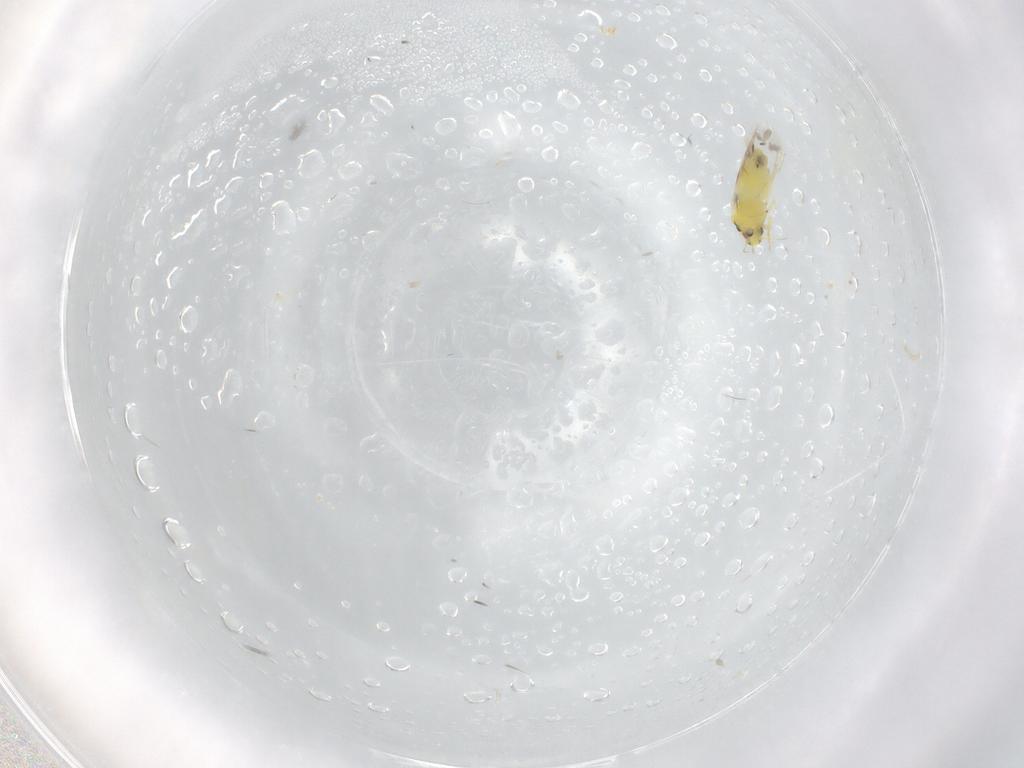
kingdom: Animalia
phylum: Arthropoda
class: Insecta
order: Hemiptera
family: Aleyrodidae
